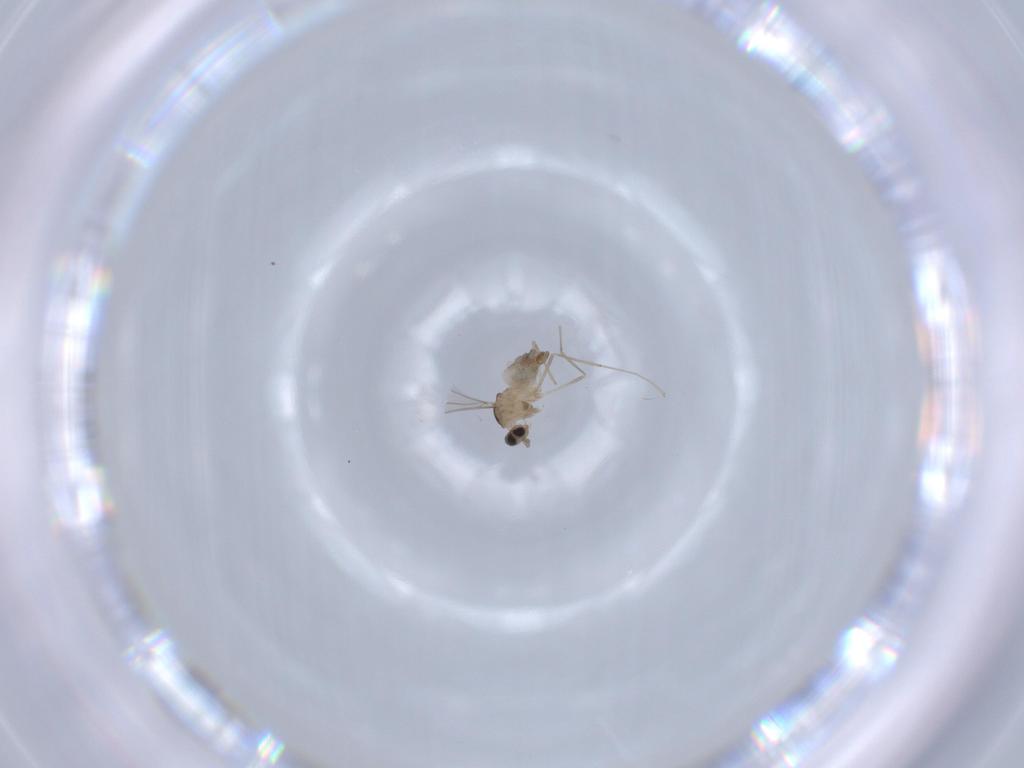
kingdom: Animalia
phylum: Arthropoda
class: Insecta
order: Diptera
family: Cecidomyiidae
